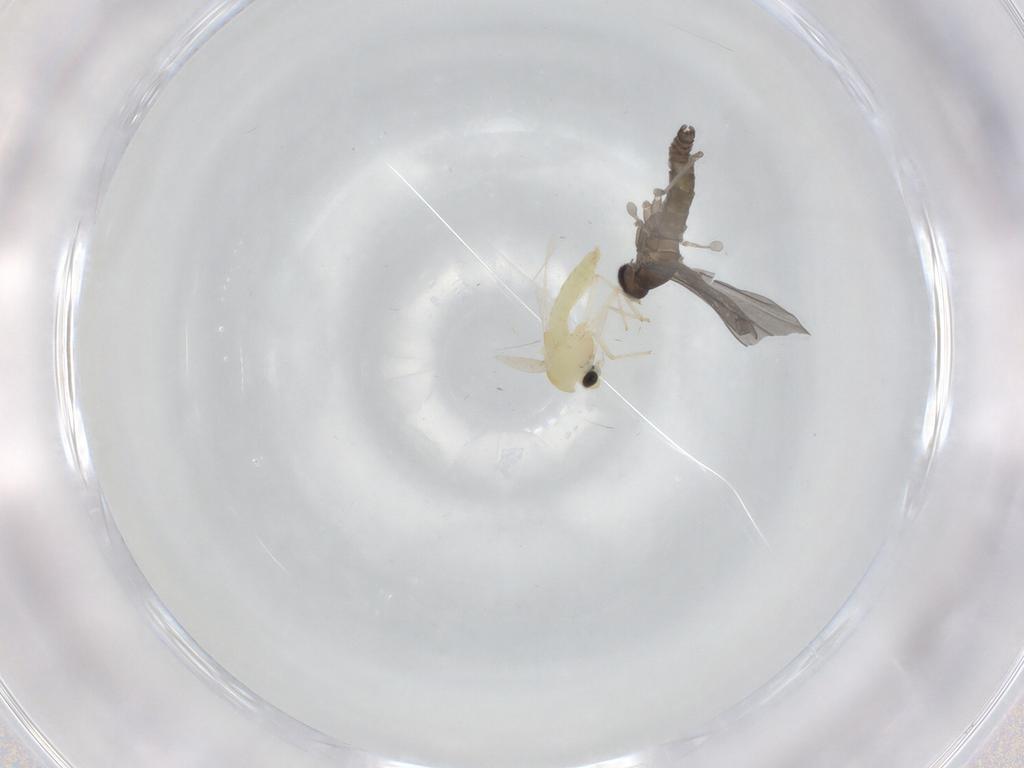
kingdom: Animalia
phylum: Arthropoda
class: Insecta
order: Diptera
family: Chironomidae
